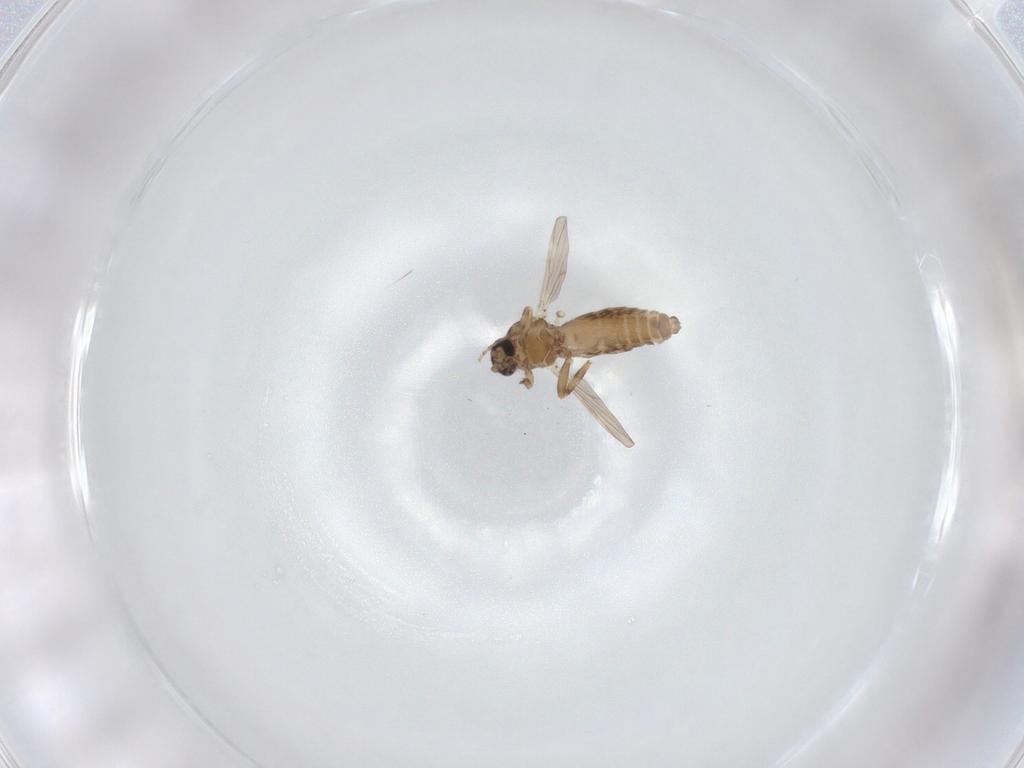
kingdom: Animalia
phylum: Arthropoda
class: Insecta
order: Diptera
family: Ceratopogonidae
